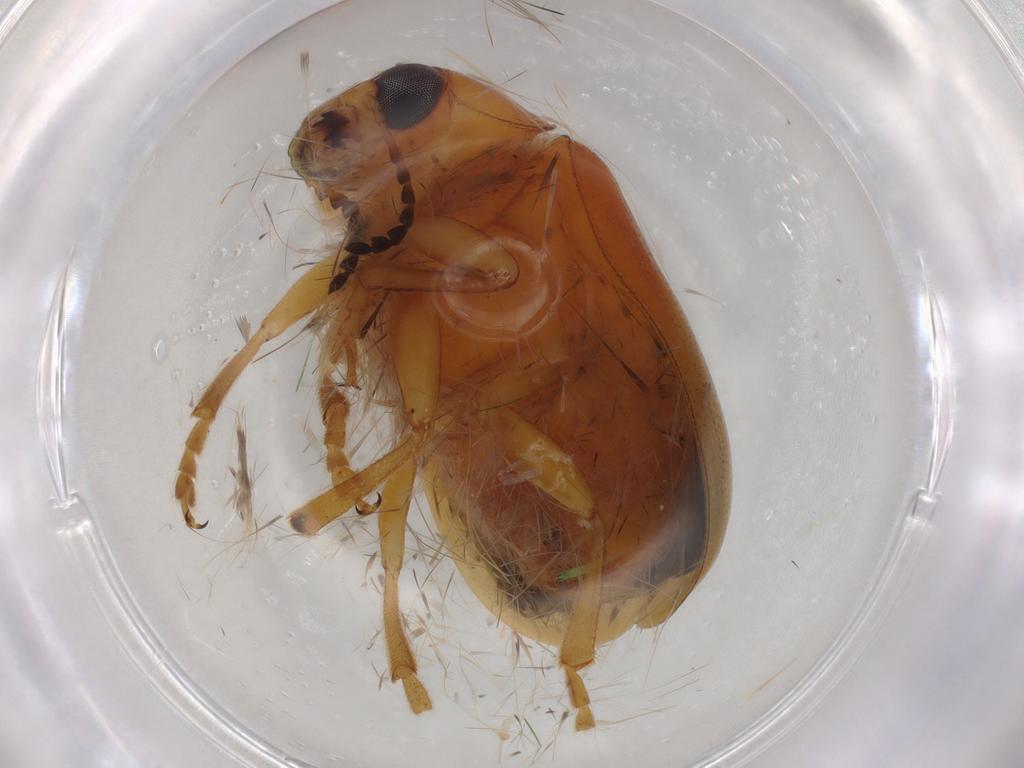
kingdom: Animalia
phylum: Arthropoda
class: Insecta
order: Coleoptera
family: Chrysomelidae
